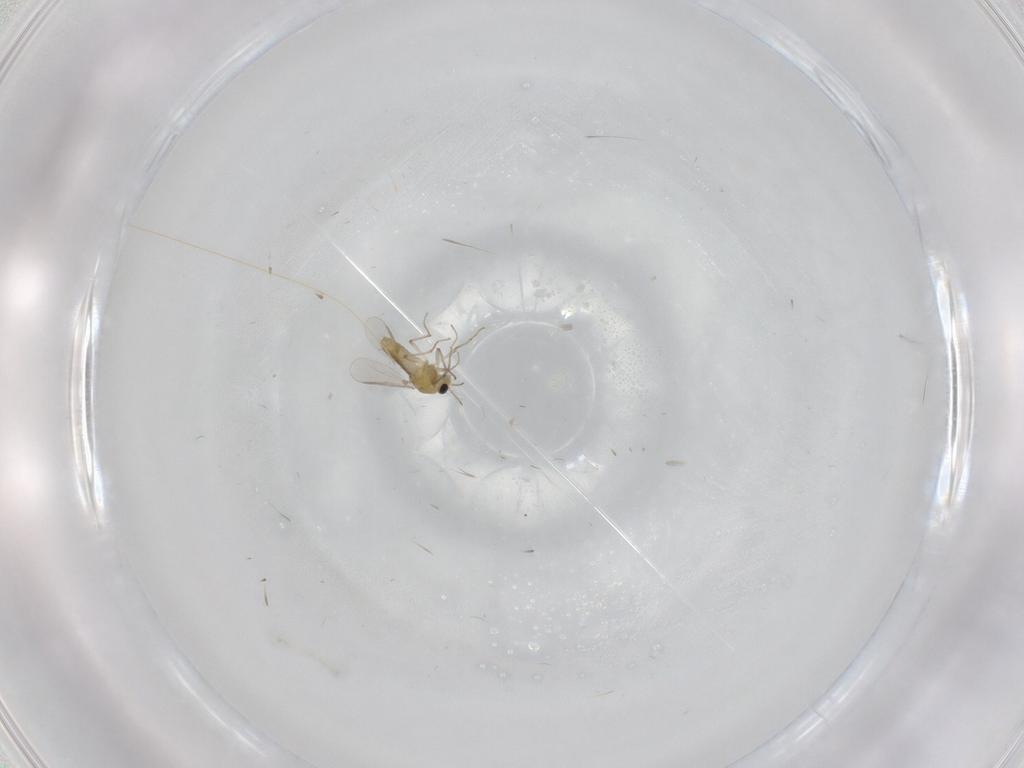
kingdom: Animalia
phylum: Arthropoda
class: Insecta
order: Diptera
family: Chironomidae
